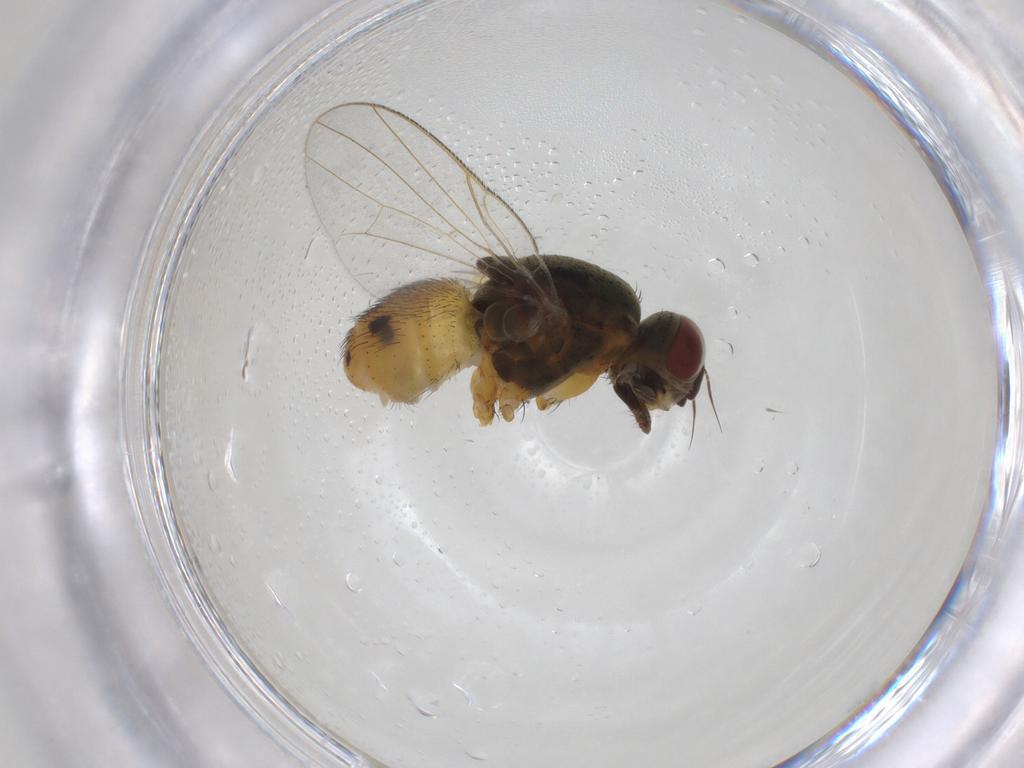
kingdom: Animalia
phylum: Arthropoda
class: Insecta
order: Diptera
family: Muscidae
